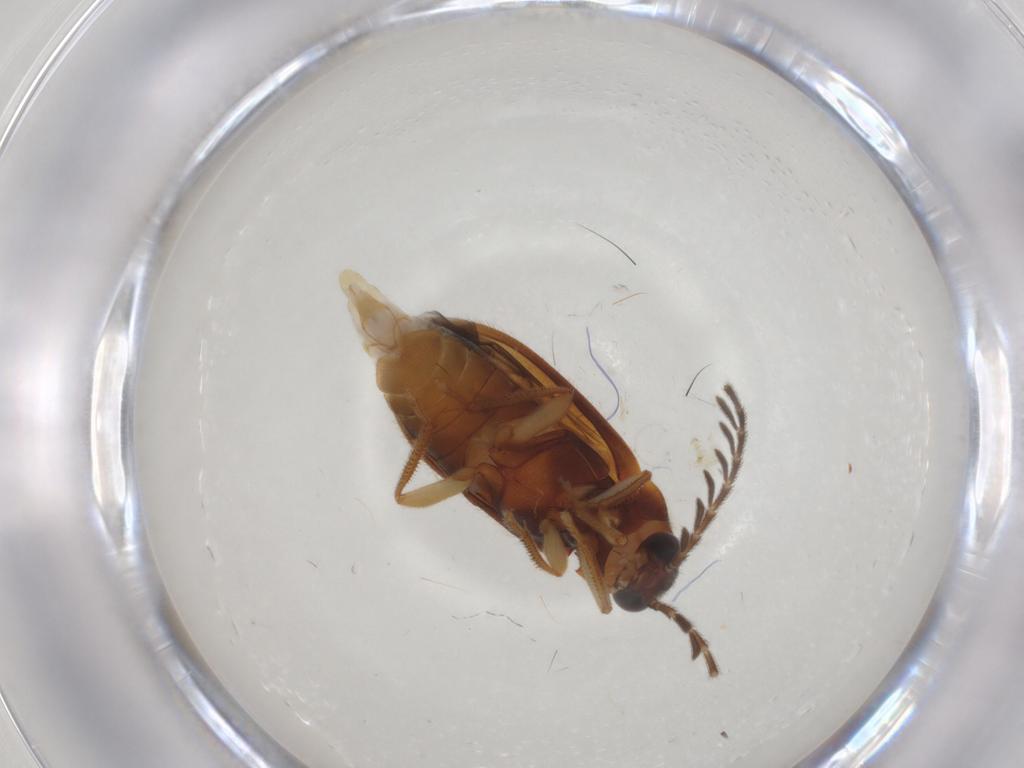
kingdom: Animalia
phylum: Arthropoda
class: Insecta
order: Coleoptera
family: Ptilodactylidae
